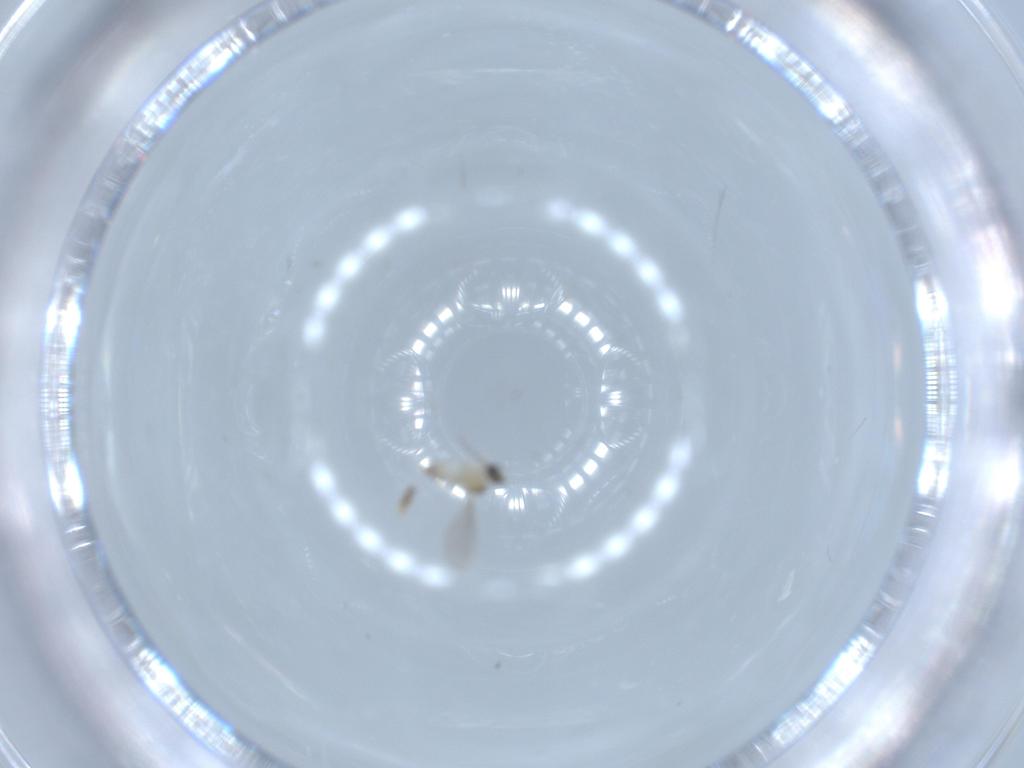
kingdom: Animalia
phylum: Arthropoda
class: Insecta
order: Diptera
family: Cecidomyiidae
